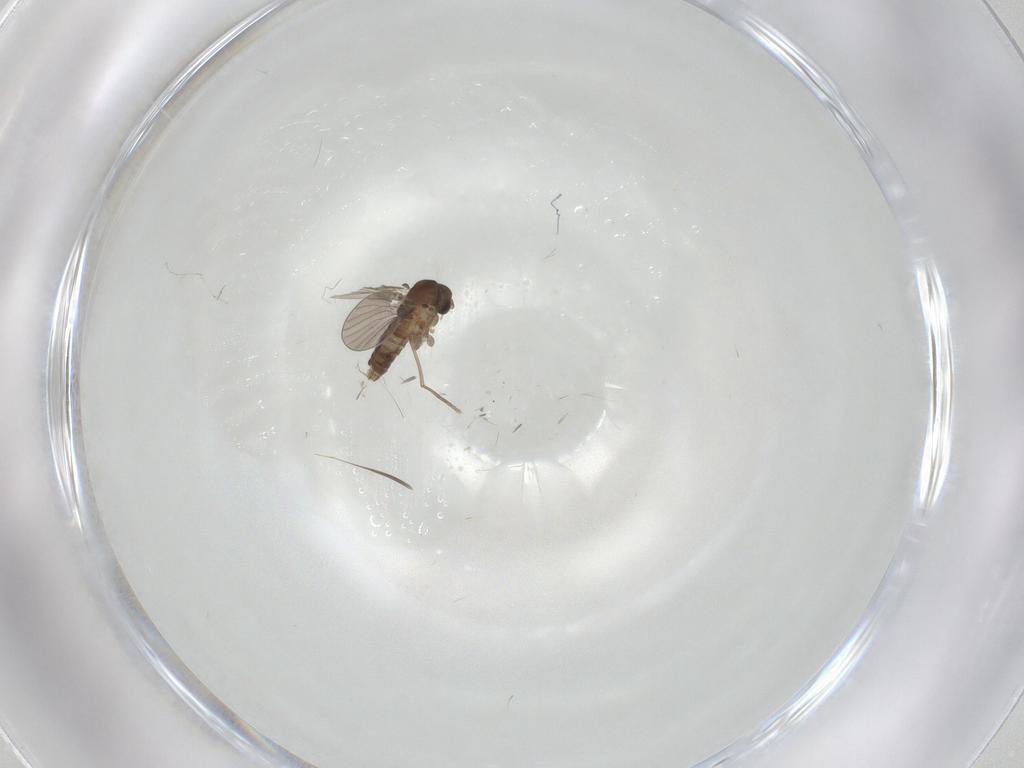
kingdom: Animalia
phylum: Arthropoda
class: Insecta
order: Diptera
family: Cecidomyiidae
